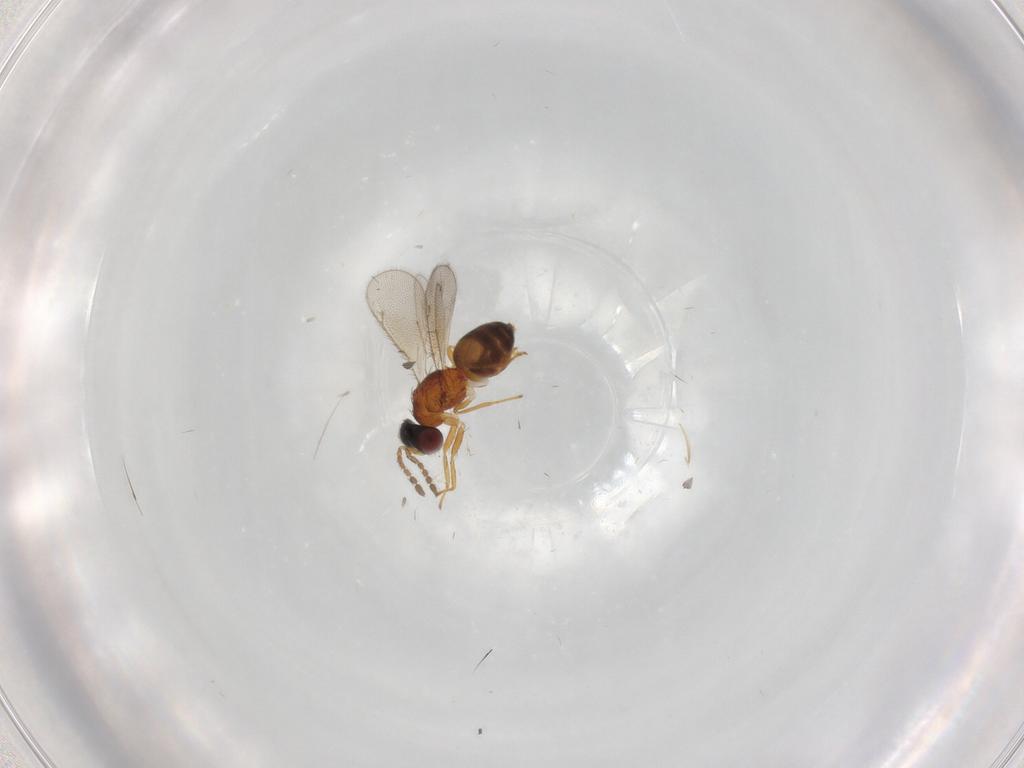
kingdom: Animalia
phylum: Arthropoda
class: Insecta
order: Hymenoptera
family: Eulophidae
